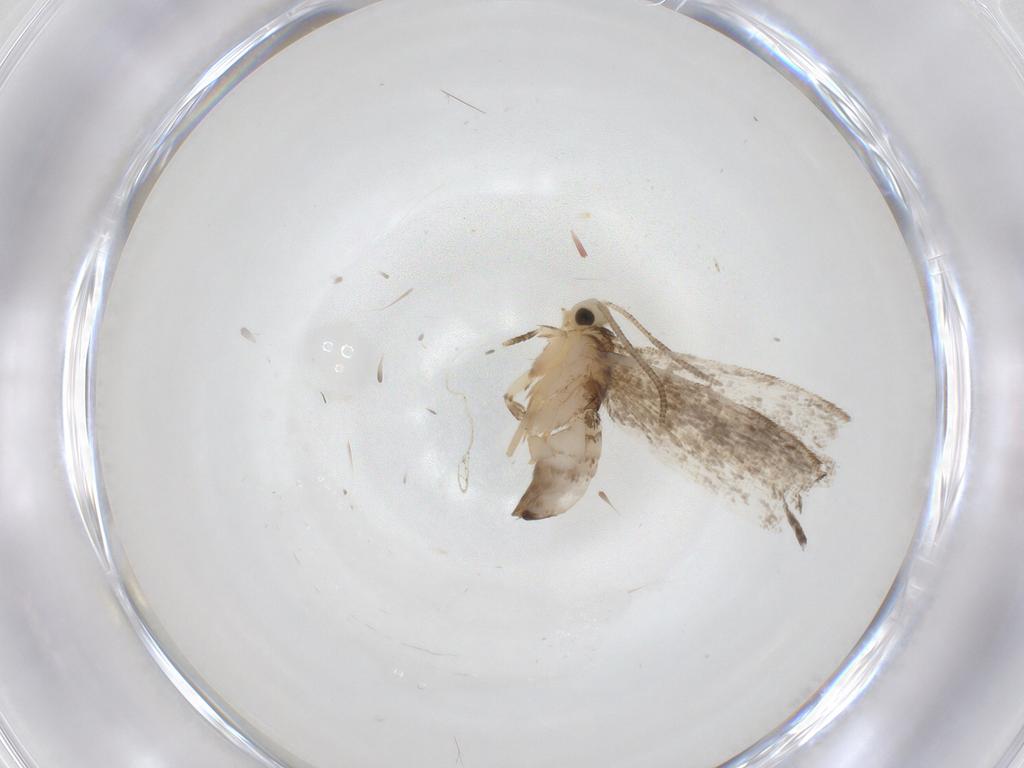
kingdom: Animalia
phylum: Arthropoda
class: Insecta
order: Lepidoptera
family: Dryadaulidae
